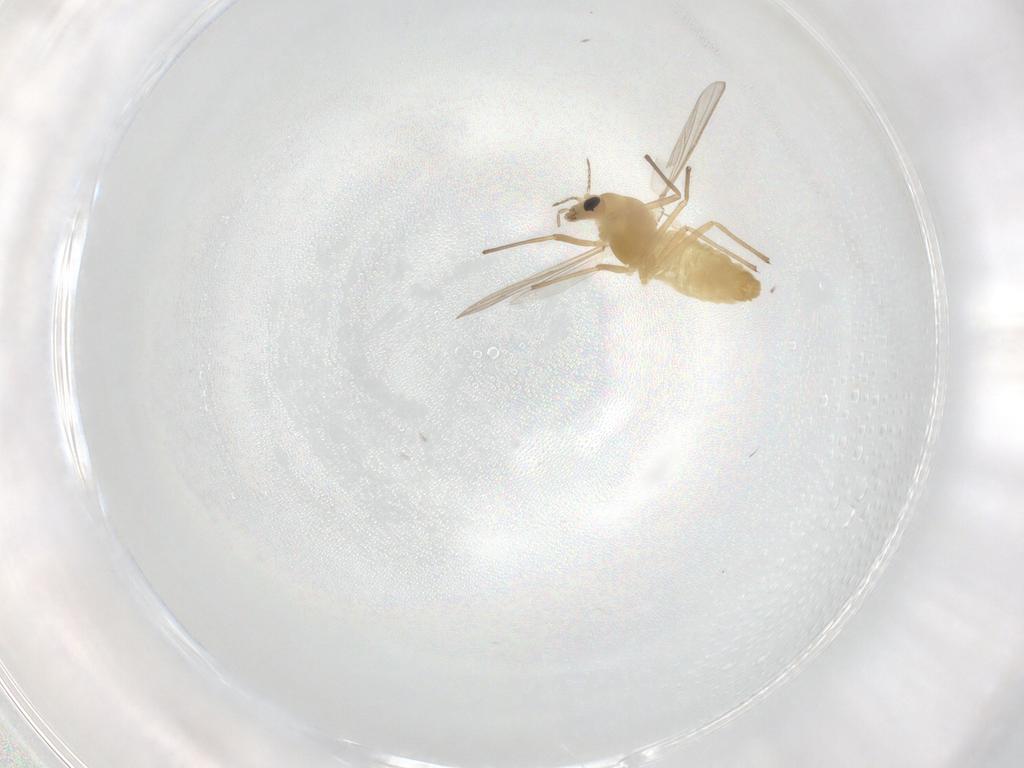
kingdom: Animalia
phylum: Arthropoda
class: Insecta
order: Diptera
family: Chironomidae
